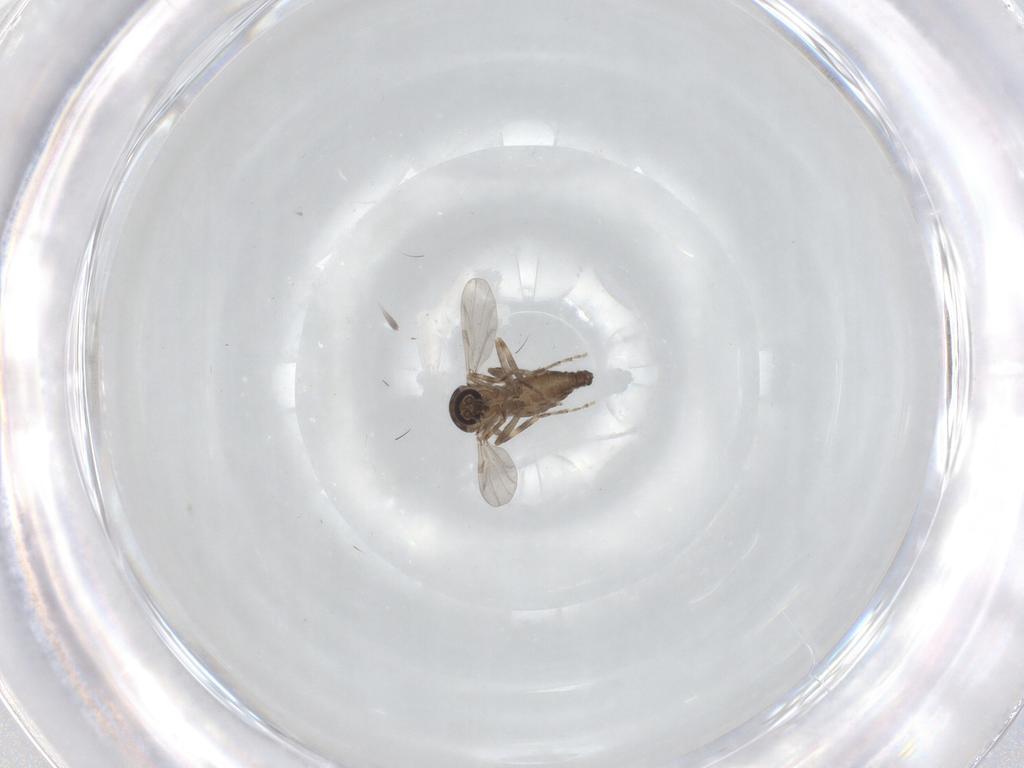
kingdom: Animalia
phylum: Arthropoda
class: Insecta
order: Diptera
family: Ceratopogonidae
